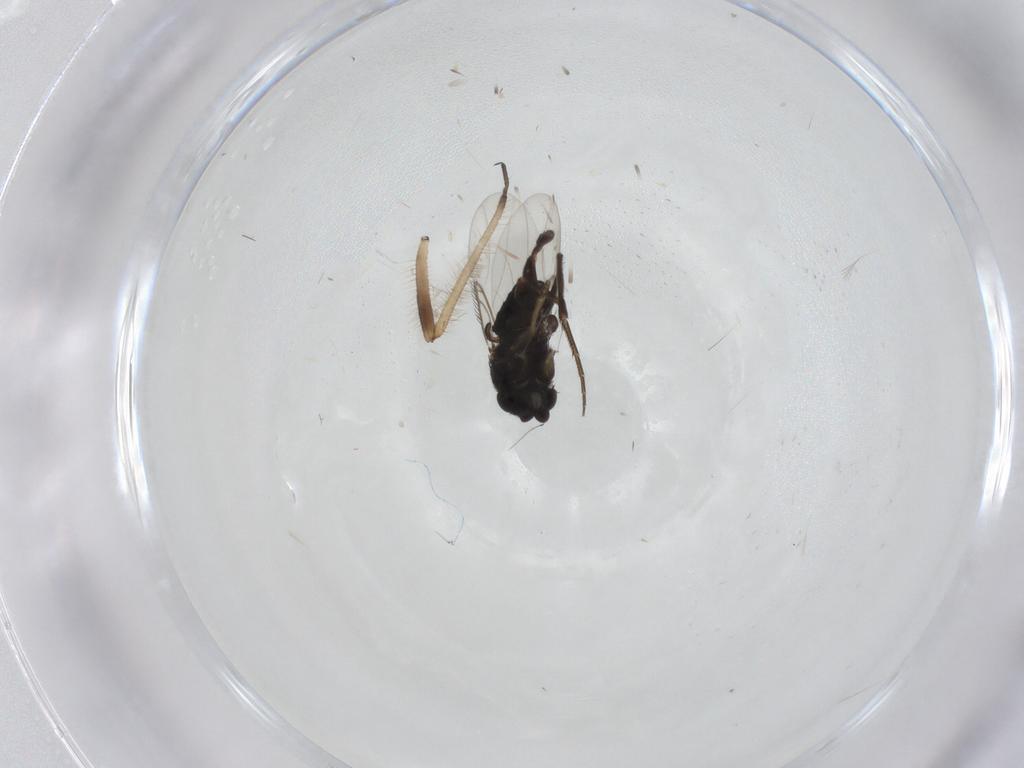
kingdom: Animalia
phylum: Arthropoda
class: Insecta
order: Diptera
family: Phoridae
